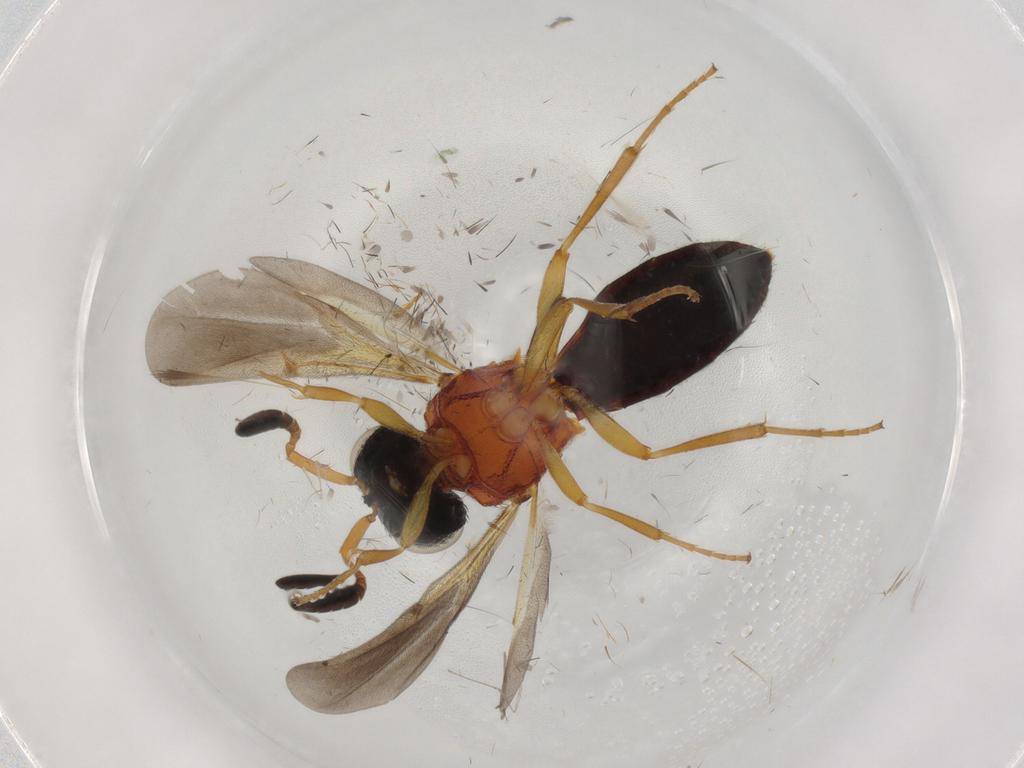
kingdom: Animalia
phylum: Arthropoda
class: Insecta
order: Hymenoptera
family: Scelionidae
